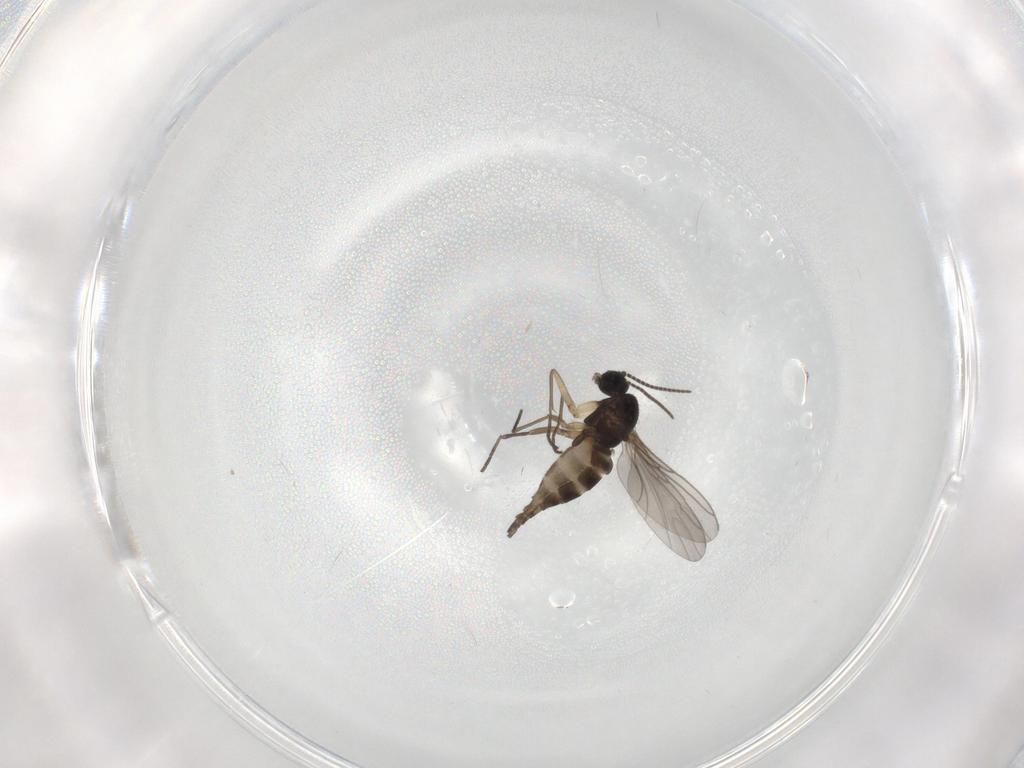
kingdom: Animalia
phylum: Arthropoda
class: Insecta
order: Diptera
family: Sciaridae
